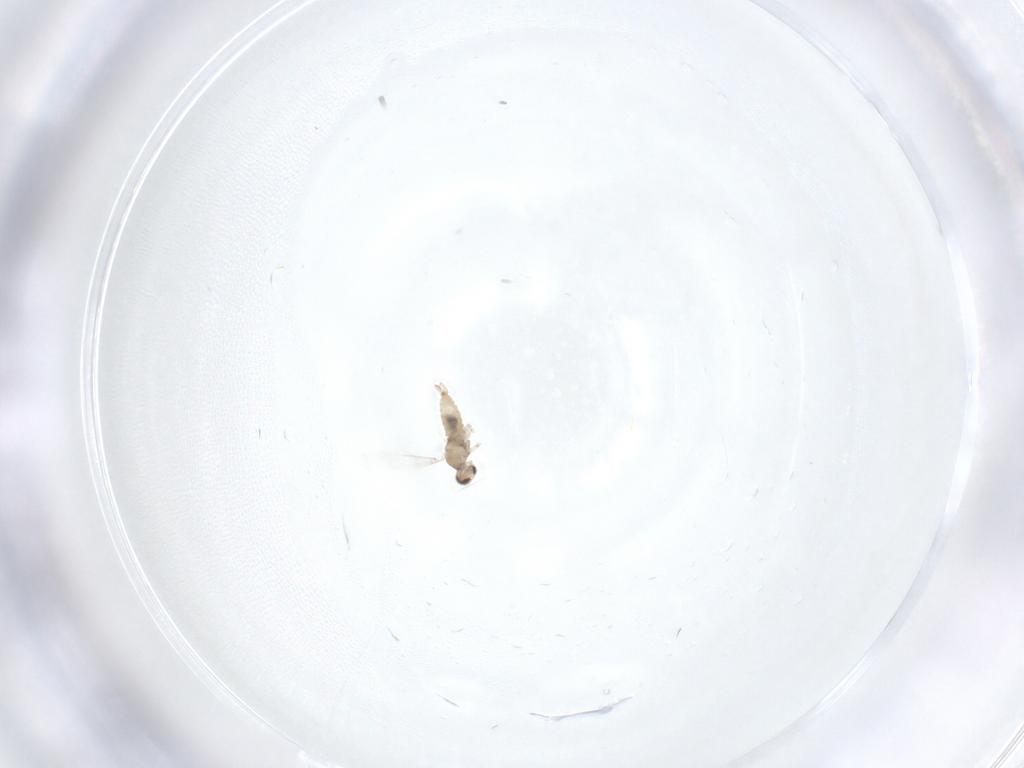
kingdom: Animalia
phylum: Arthropoda
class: Insecta
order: Diptera
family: Cecidomyiidae
